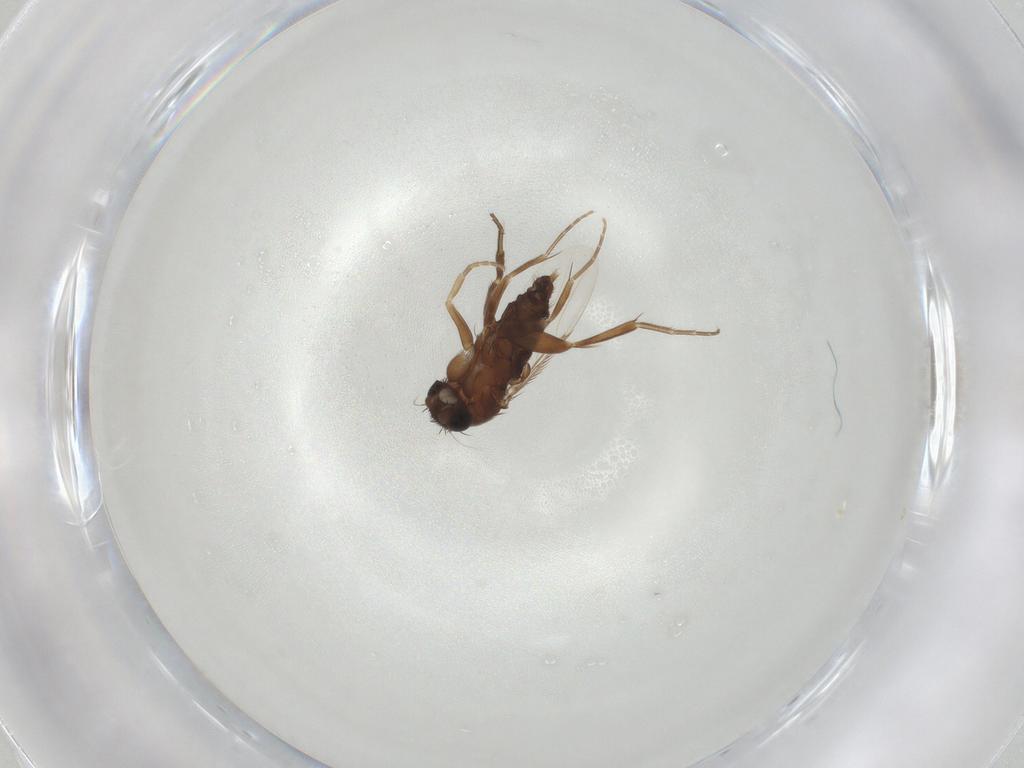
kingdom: Animalia
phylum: Arthropoda
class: Insecta
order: Diptera
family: Phoridae
